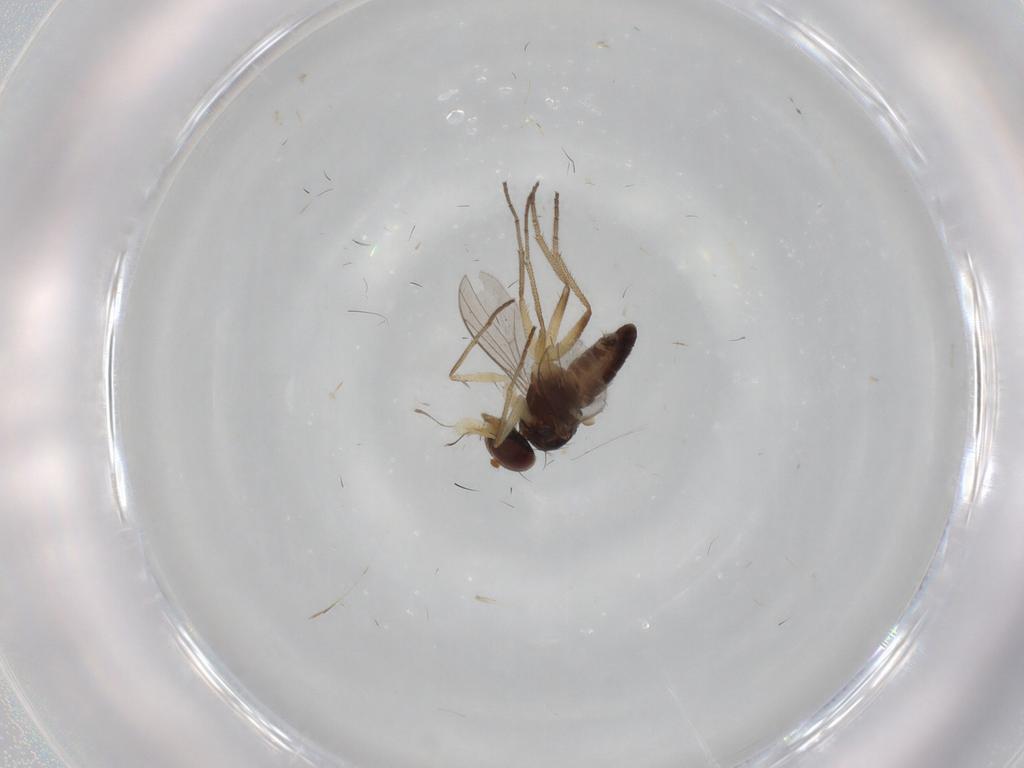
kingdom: Animalia
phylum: Arthropoda
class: Insecta
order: Diptera
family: Dolichopodidae
